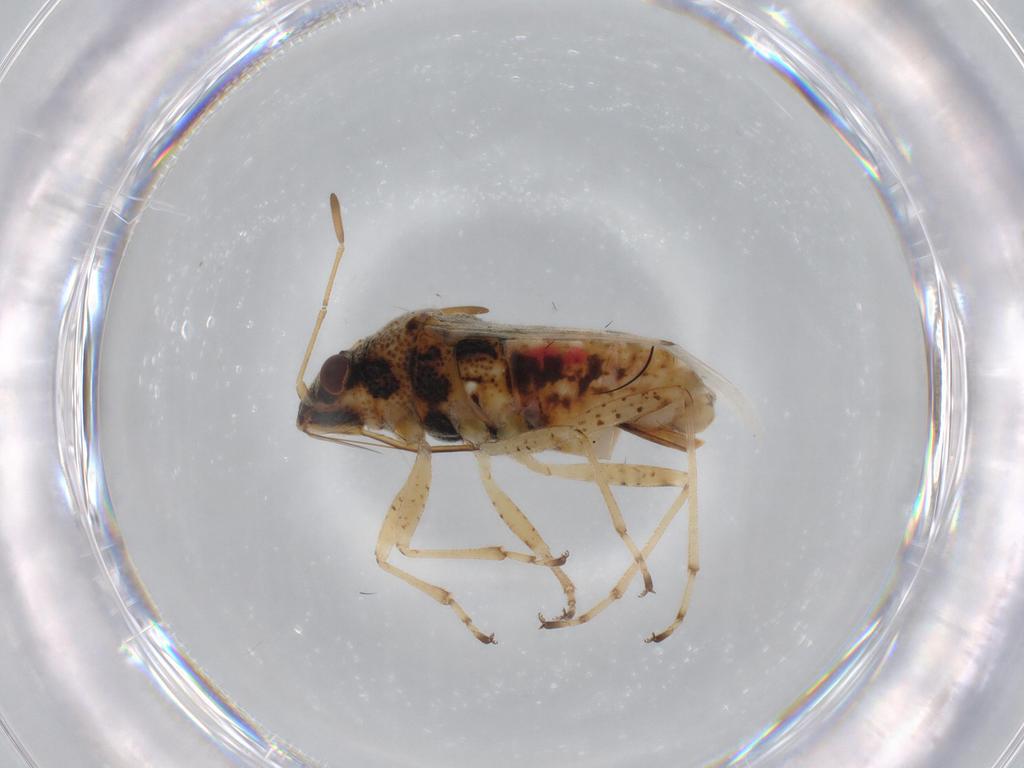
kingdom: Animalia
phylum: Arthropoda
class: Insecta
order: Hemiptera
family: Lygaeidae
